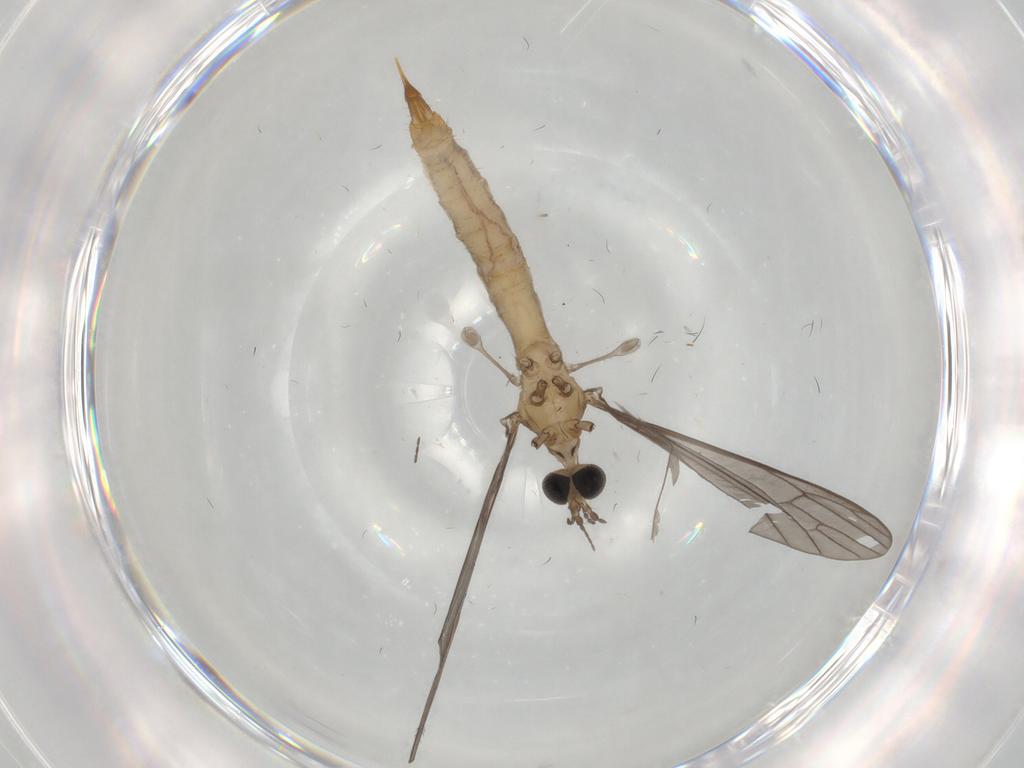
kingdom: Animalia
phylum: Arthropoda
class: Insecta
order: Diptera
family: Limoniidae
